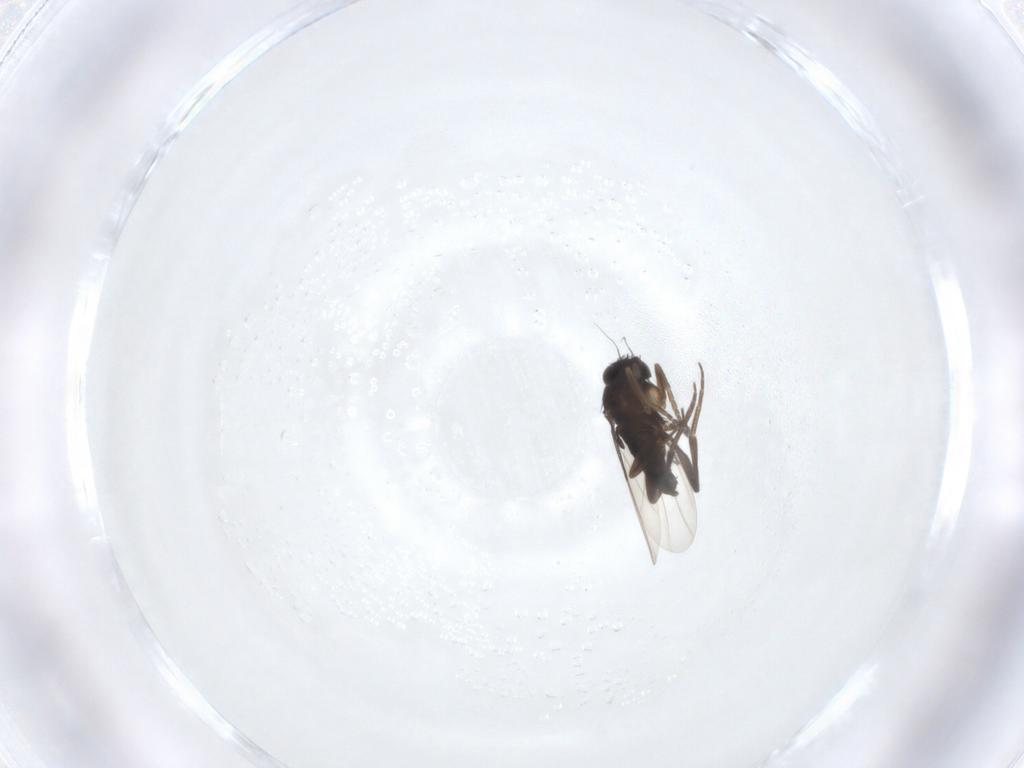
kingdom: Animalia
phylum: Arthropoda
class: Insecta
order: Diptera
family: Phoridae
